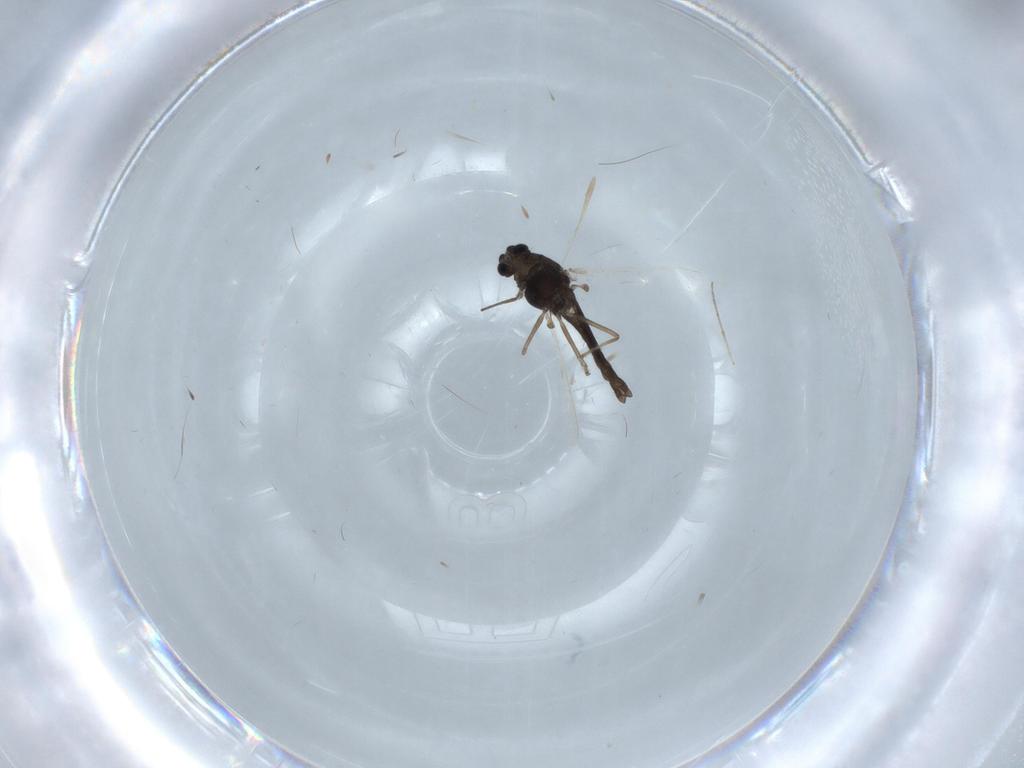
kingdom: Animalia
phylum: Arthropoda
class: Insecta
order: Diptera
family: Chironomidae
